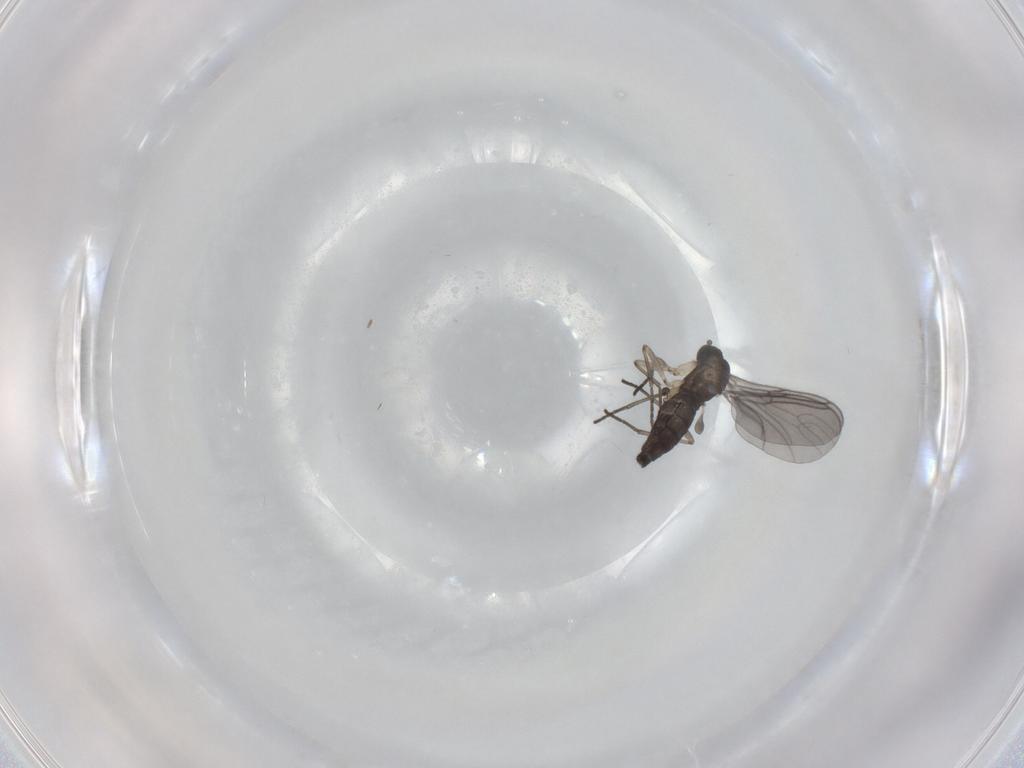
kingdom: Animalia
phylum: Arthropoda
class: Insecta
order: Diptera
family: Sciaridae
